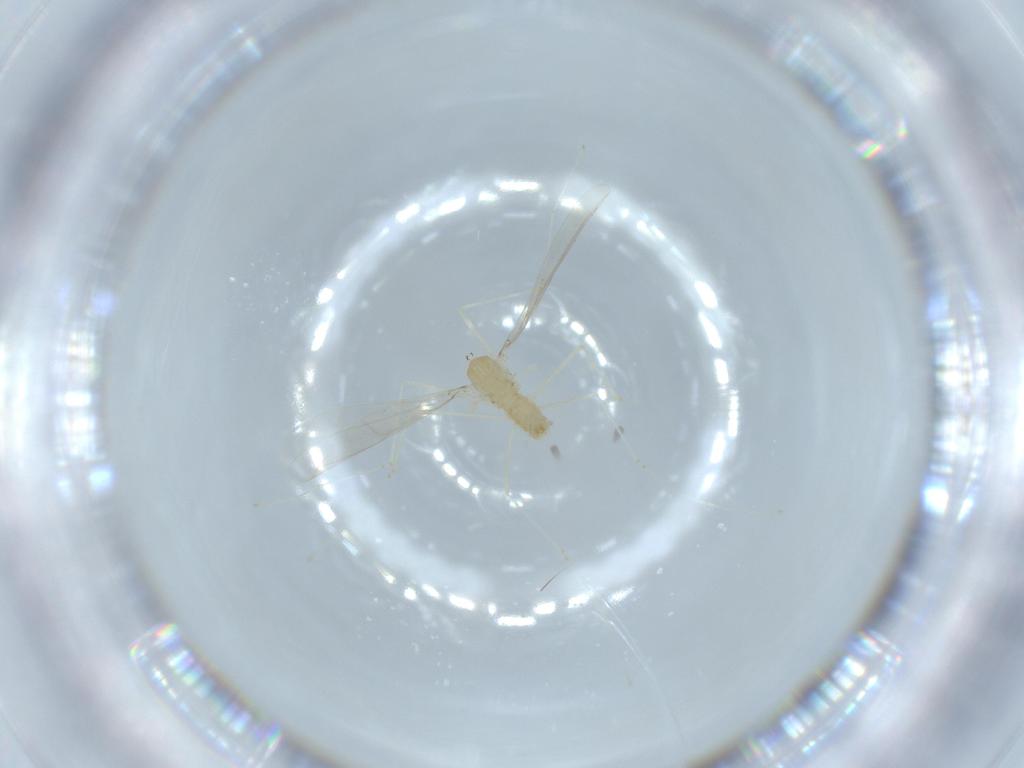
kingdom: Animalia
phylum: Arthropoda
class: Insecta
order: Diptera
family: Cecidomyiidae
